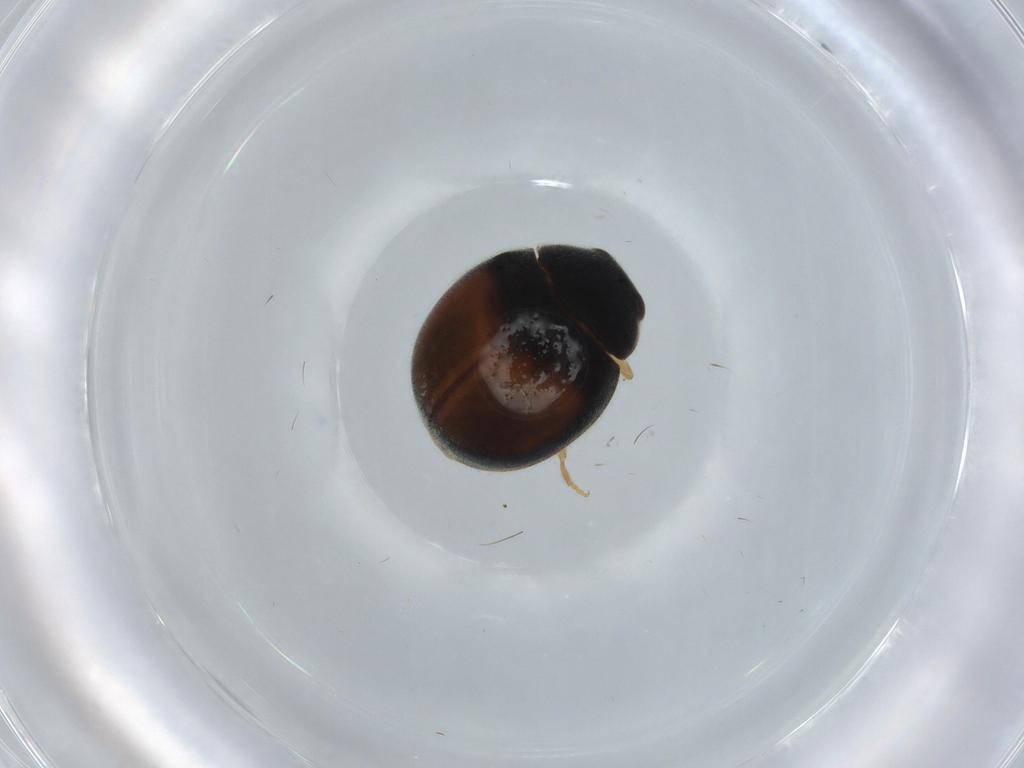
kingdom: Animalia
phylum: Arthropoda
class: Insecta
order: Coleoptera
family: Coccinellidae
